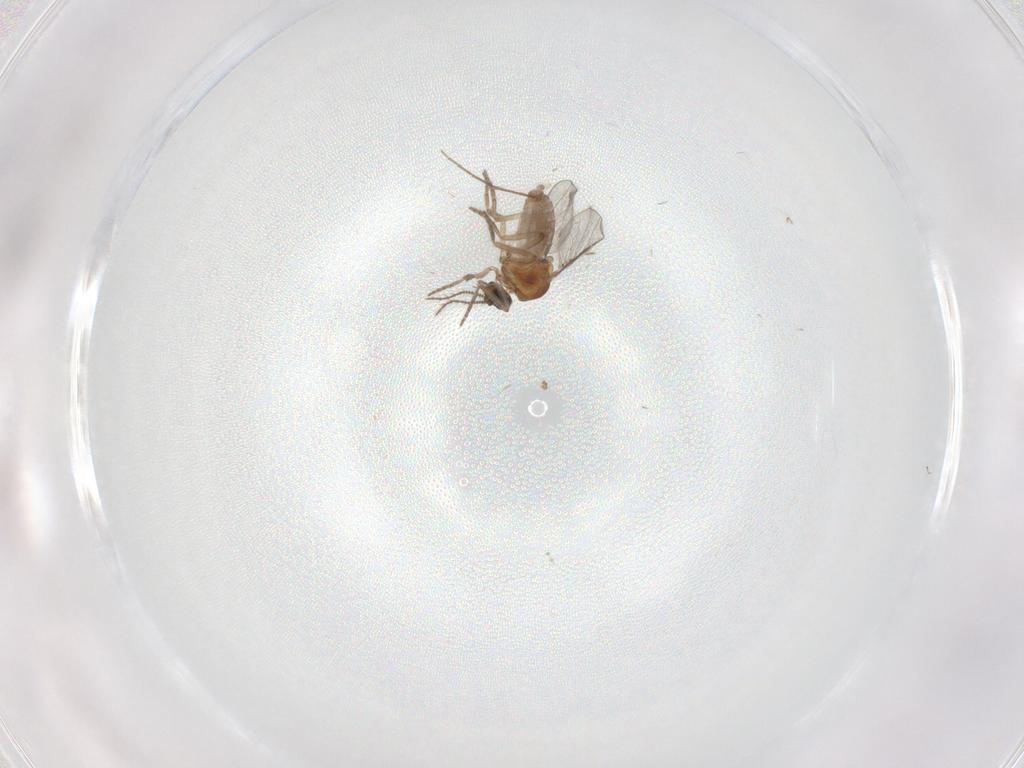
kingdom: Animalia
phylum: Arthropoda
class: Insecta
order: Diptera
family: Chironomidae
